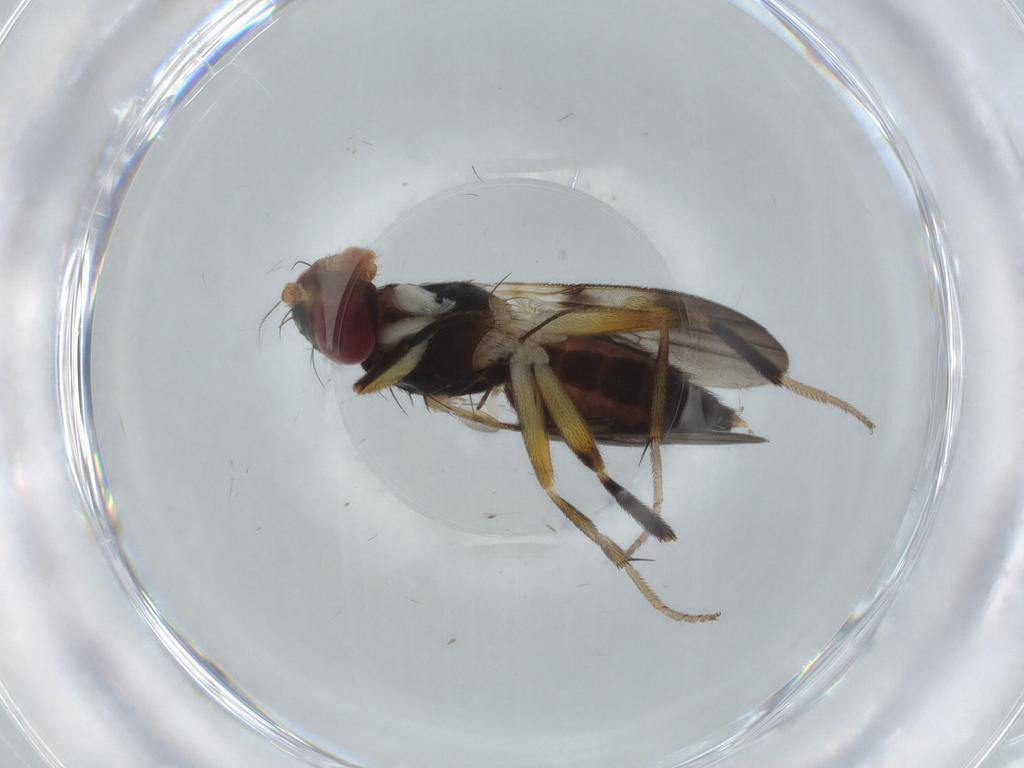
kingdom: Animalia
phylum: Arthropoda
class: Insecta
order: Diptera
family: Clusiidae
